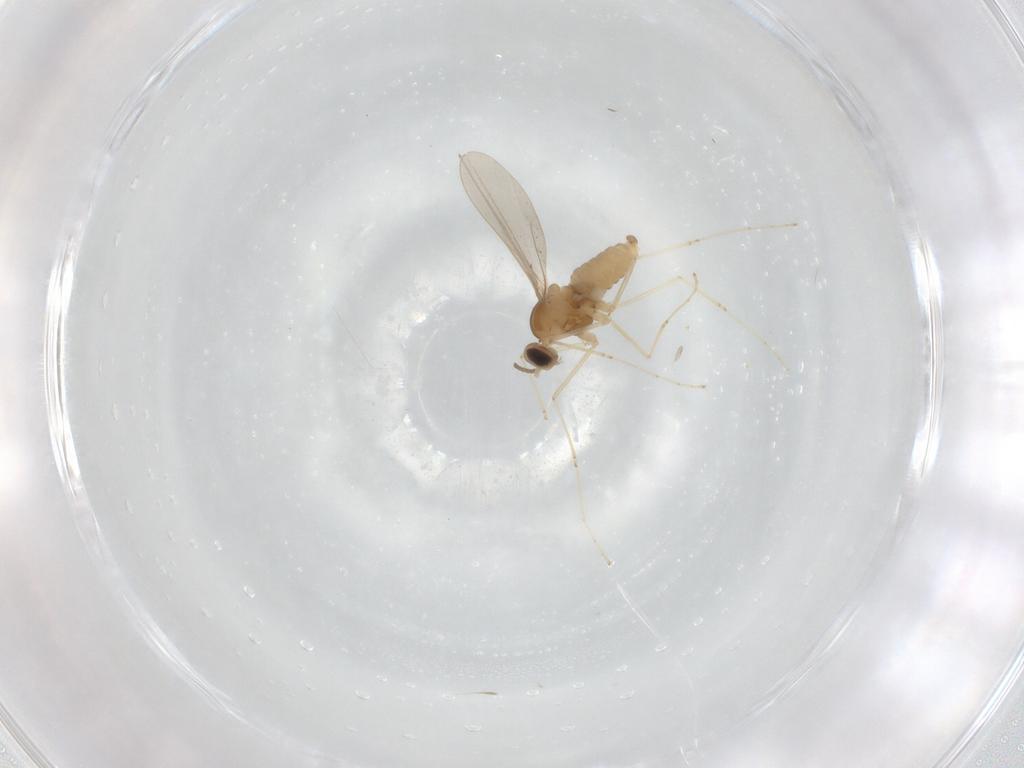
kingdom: Animalia
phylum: Arthropoda
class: Insecta
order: Diptera
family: Cecidomyiidae
